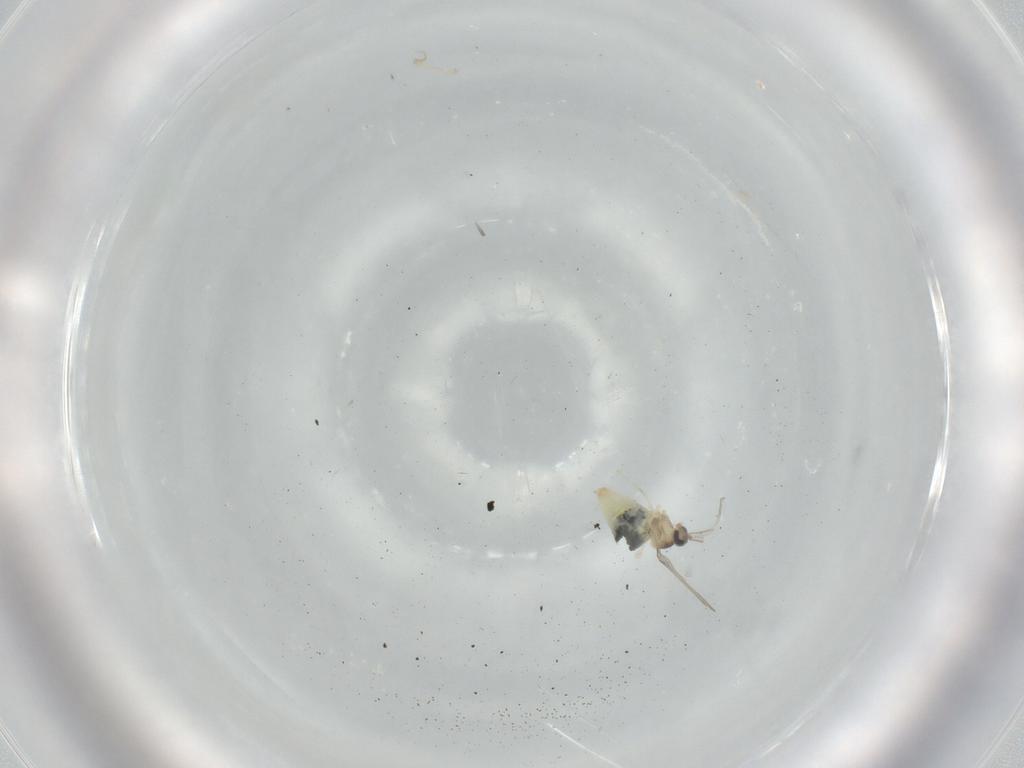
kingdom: Animalia
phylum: Arthropoda
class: Insecta
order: Diptera
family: Cecidomyiidae
